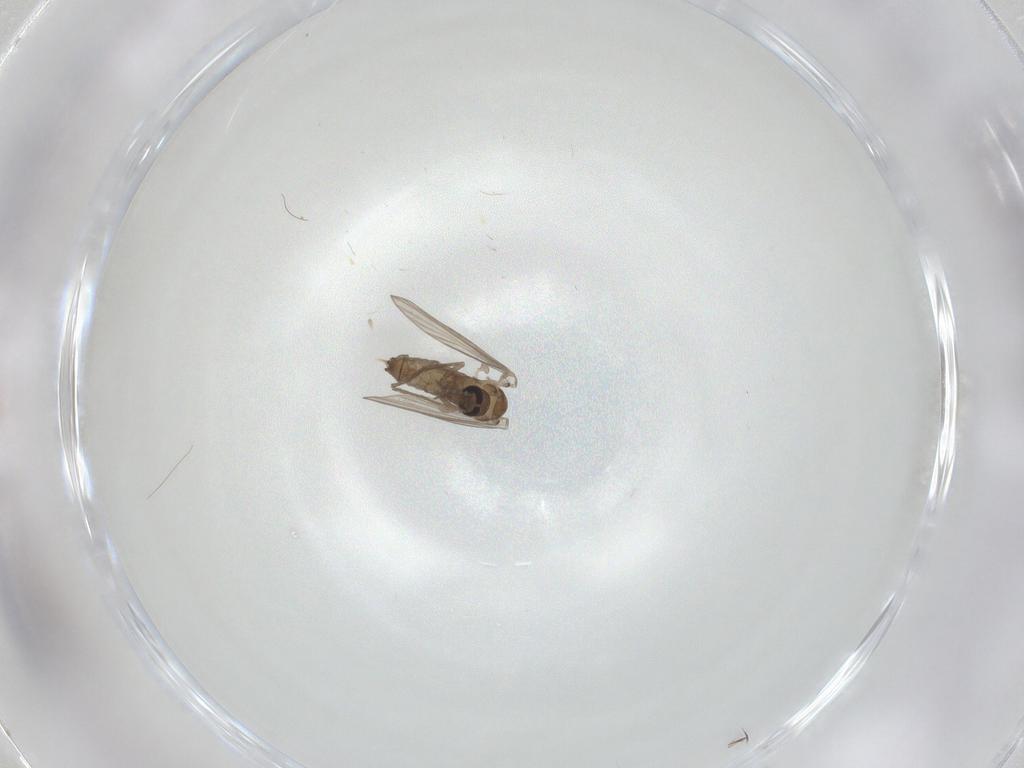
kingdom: Animalia
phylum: Arthropoda
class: Insecta
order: Diptera
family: Psychodidae
